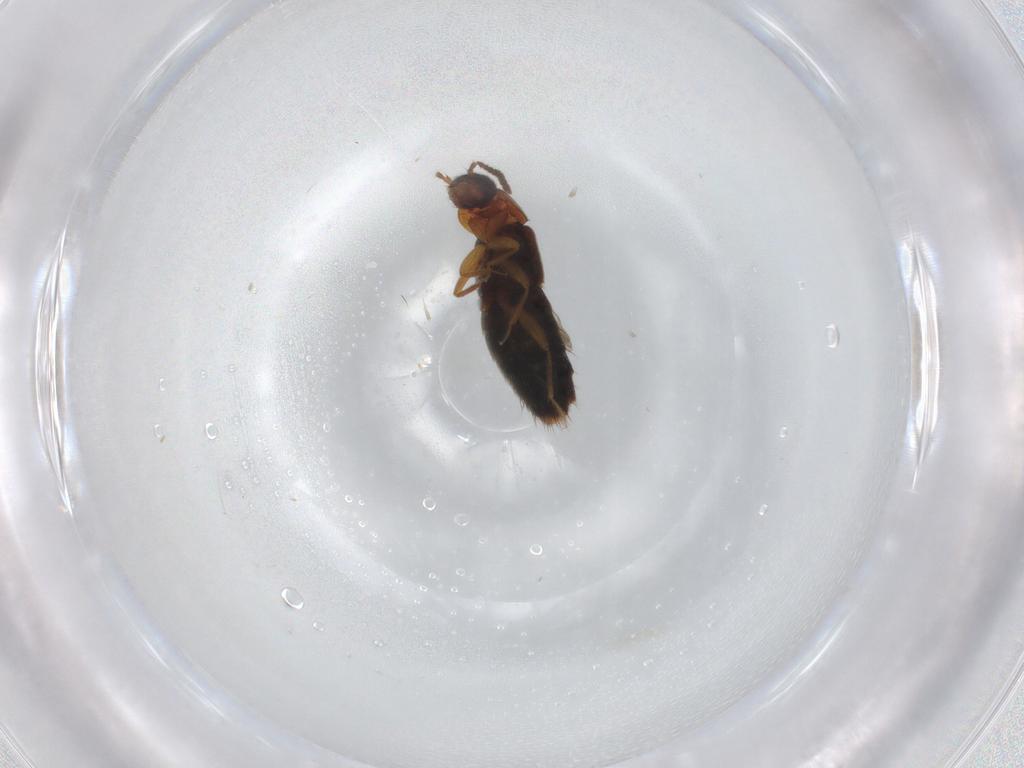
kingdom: Animalia
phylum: Arthropoda
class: Insecta
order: Coleoptera
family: Staphylinidae
